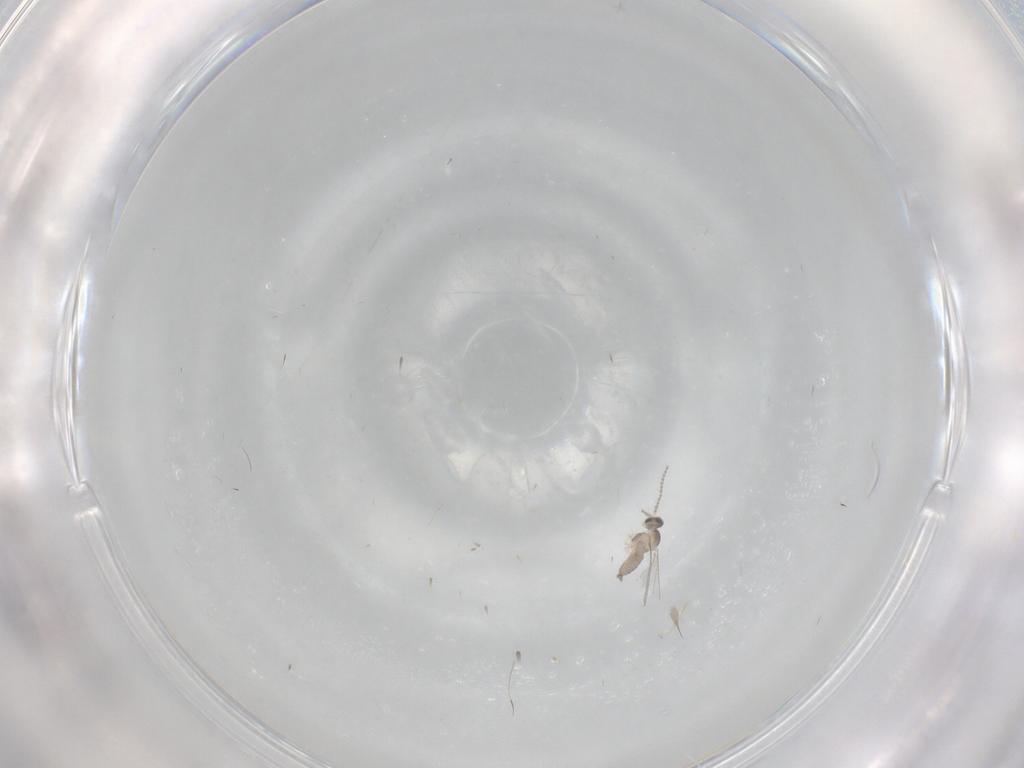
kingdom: Animalia
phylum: Arthropoda
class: Insecta
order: Diptera
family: Cecidomyiidae
